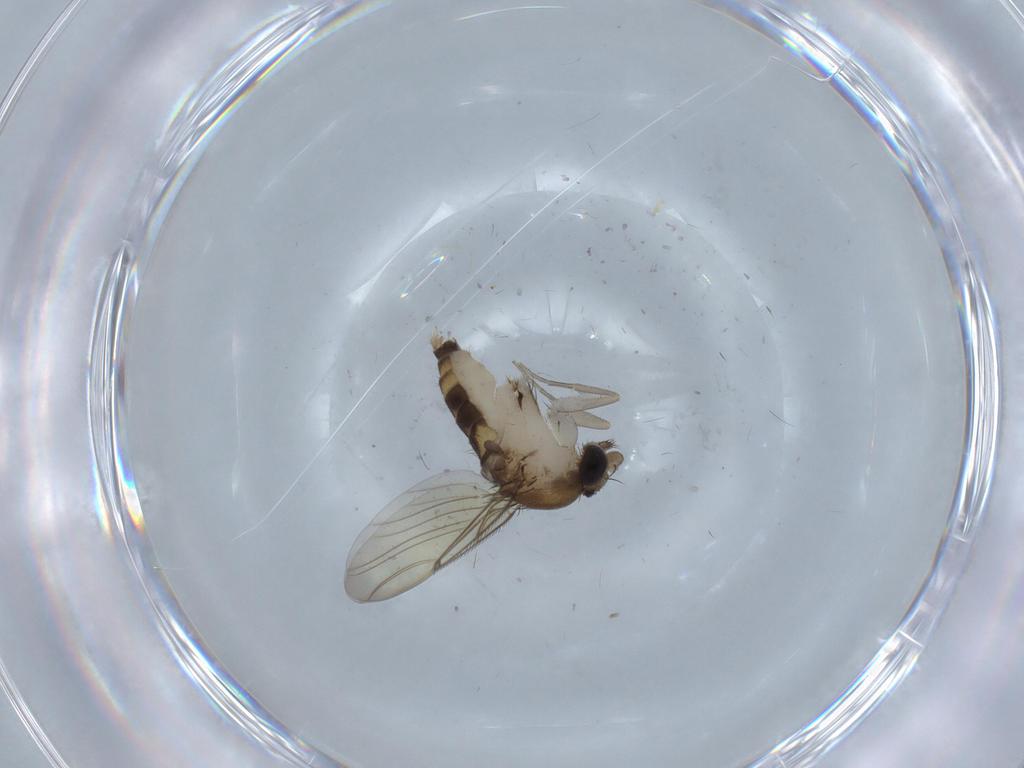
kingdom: Animalia
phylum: Arthropoda
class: Insecta
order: Diptera
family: Phoridae
